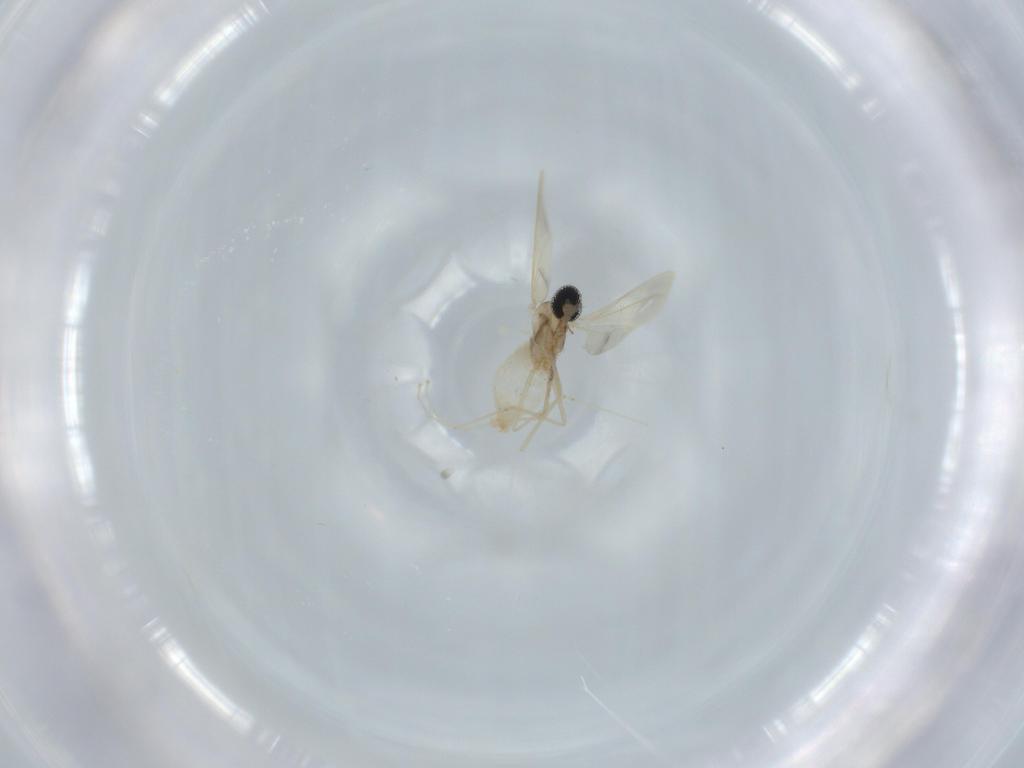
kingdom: Animalia
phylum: Arthropoda
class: Insecta
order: Diptera
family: Cecidomyiidae
